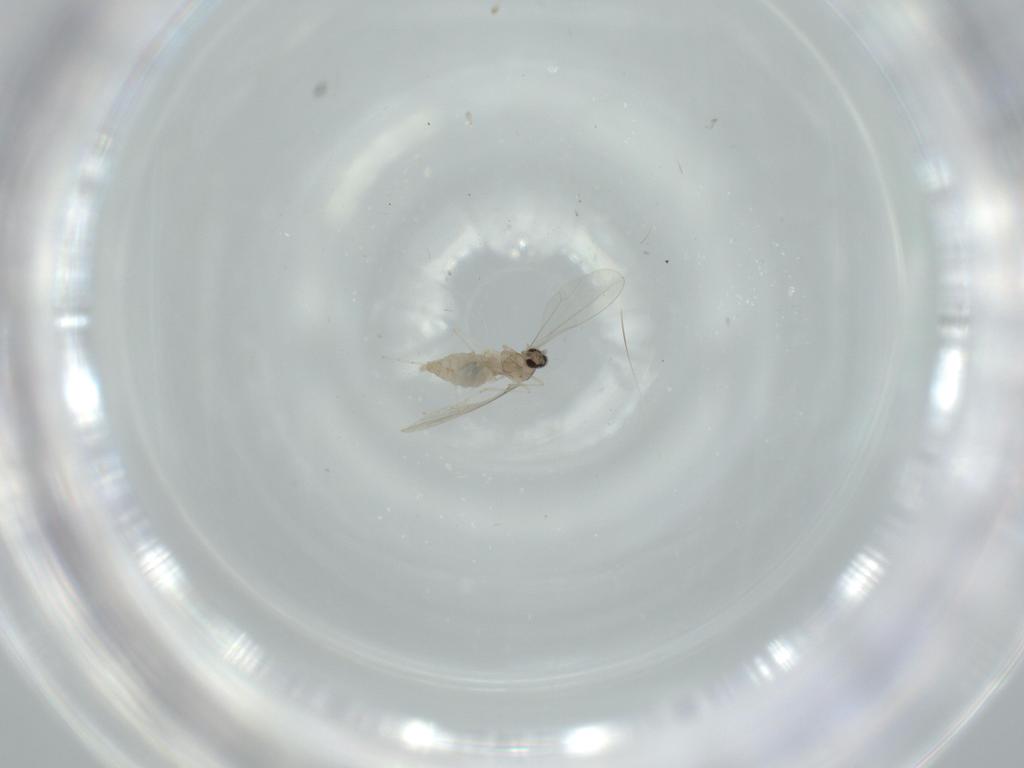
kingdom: Animalia
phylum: Arthropoda
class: Insecta
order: Diptera
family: Cecidomyiidae
